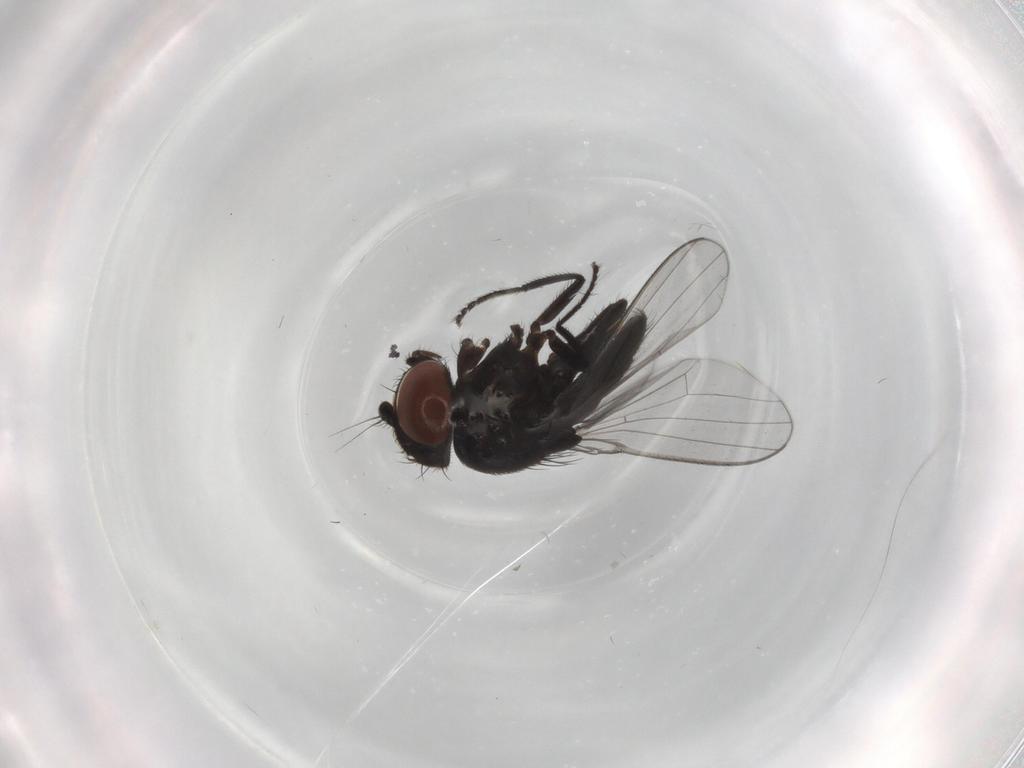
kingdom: Animalia
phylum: Arthropoda
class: Insecta
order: Diptera
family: Milichiidae
